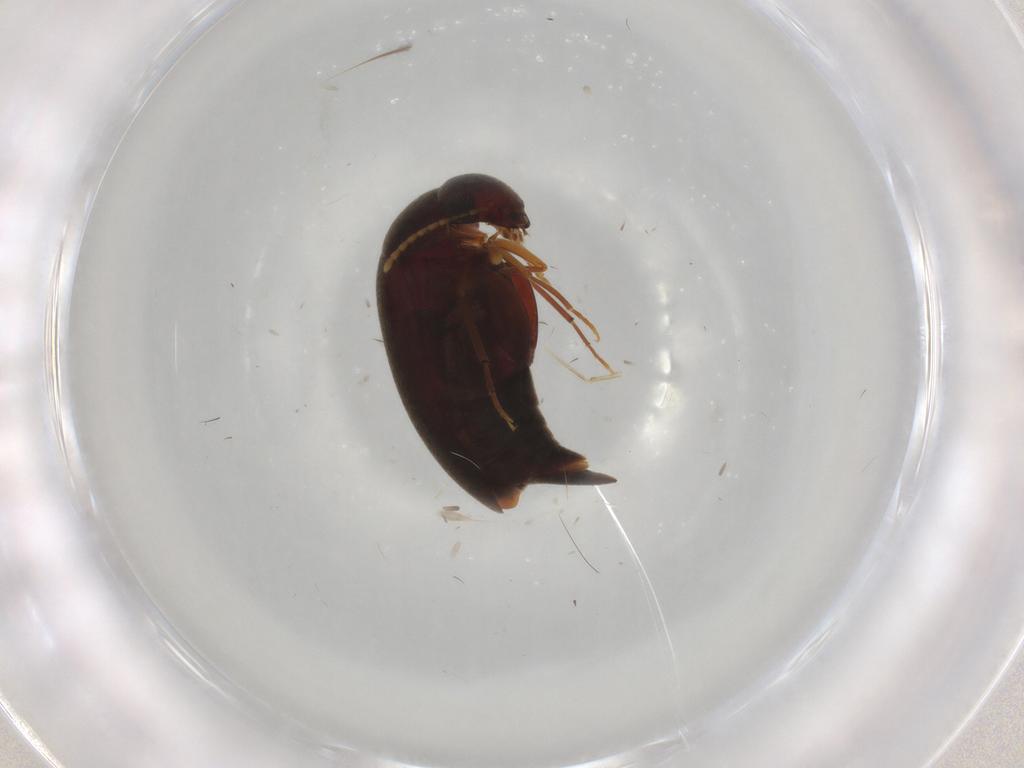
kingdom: Animalia
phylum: Arthropoda
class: Insecta
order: Coleoptera
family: Mordellidae
